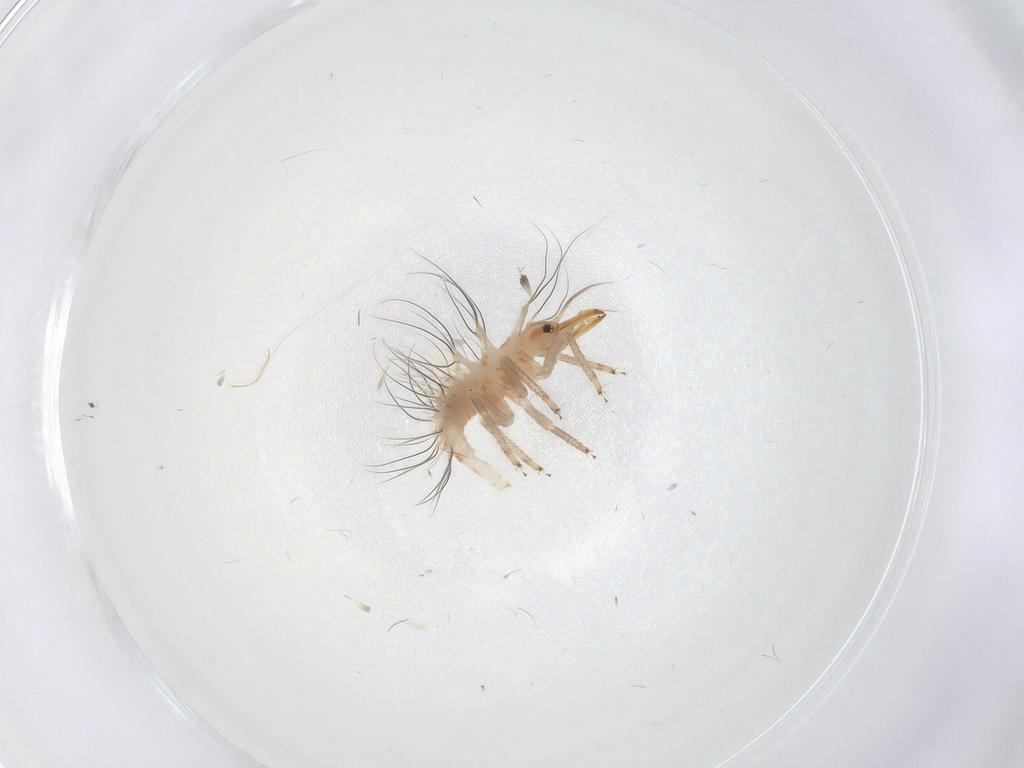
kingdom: Animalia
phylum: Arthropoda
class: Insecta
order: Neuroptera
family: Chrysopidae
